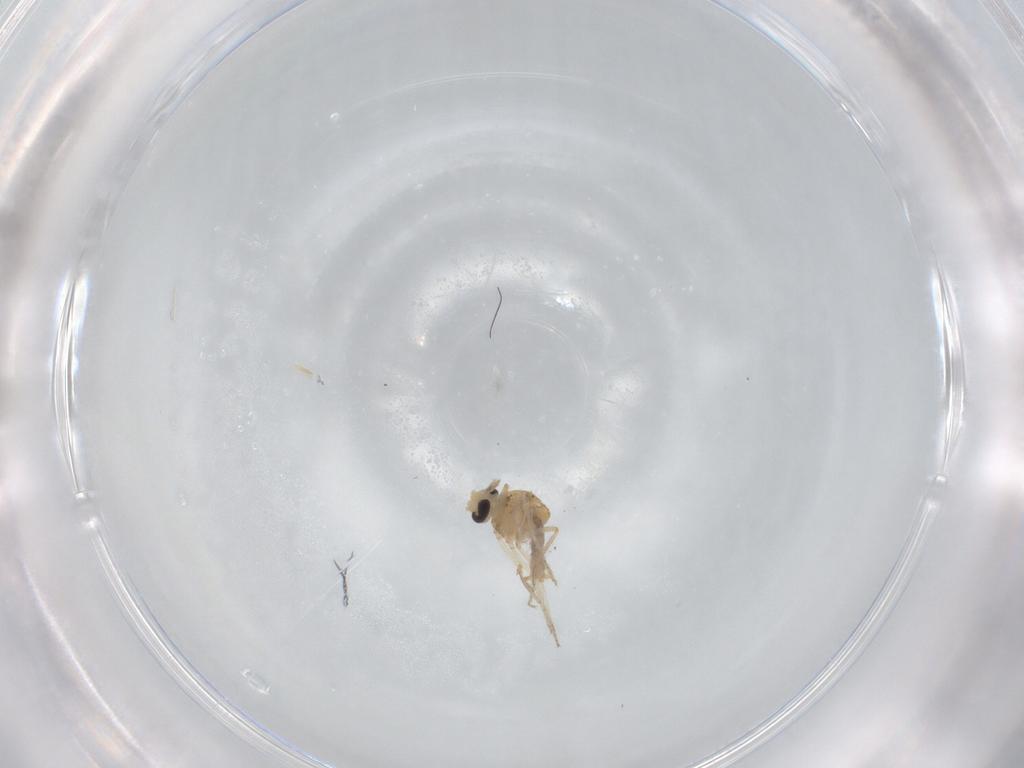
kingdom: Animalia
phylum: Arthropoda
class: Insecta
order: Diptera
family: Ceratopogonidae
